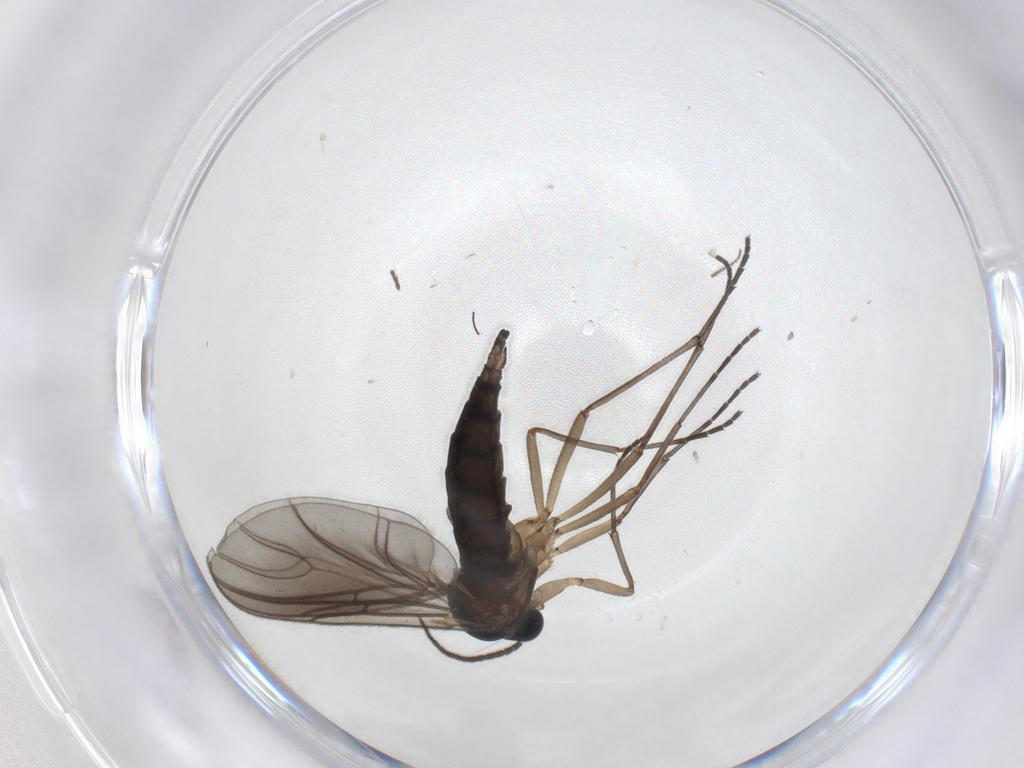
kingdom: Animalia
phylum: Arthropoda
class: Insecta
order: Diptera
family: Sciaridae
